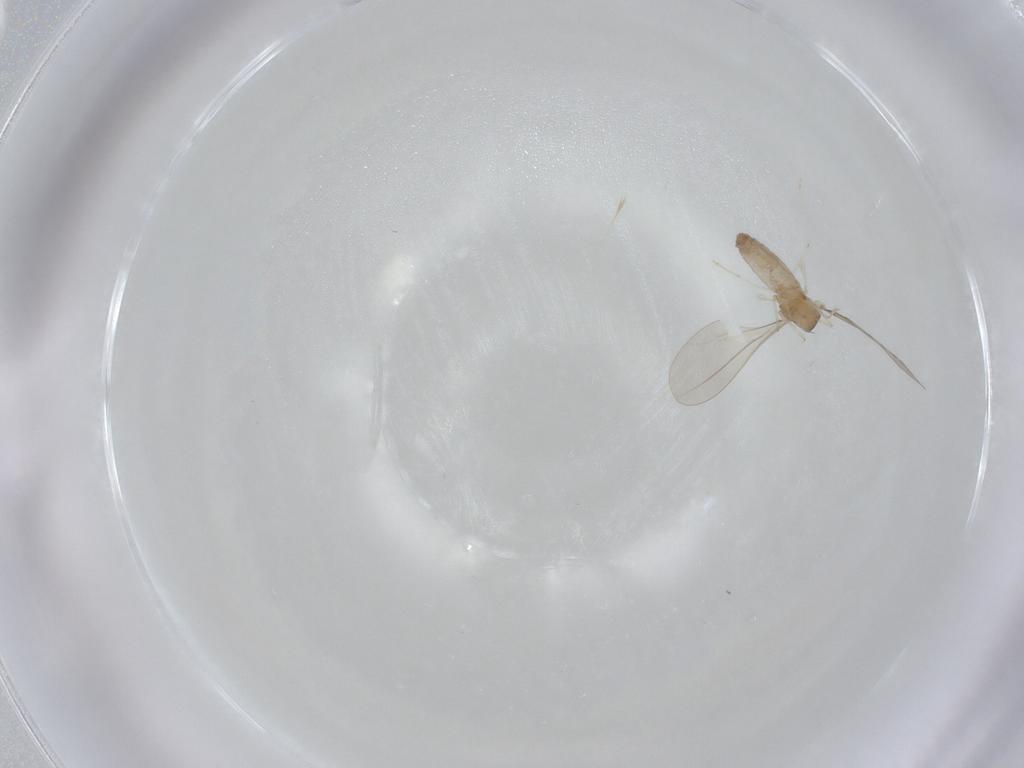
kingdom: Animalia
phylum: Arthropoda
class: Insecta
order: Diptera
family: Cecidomyiidae
